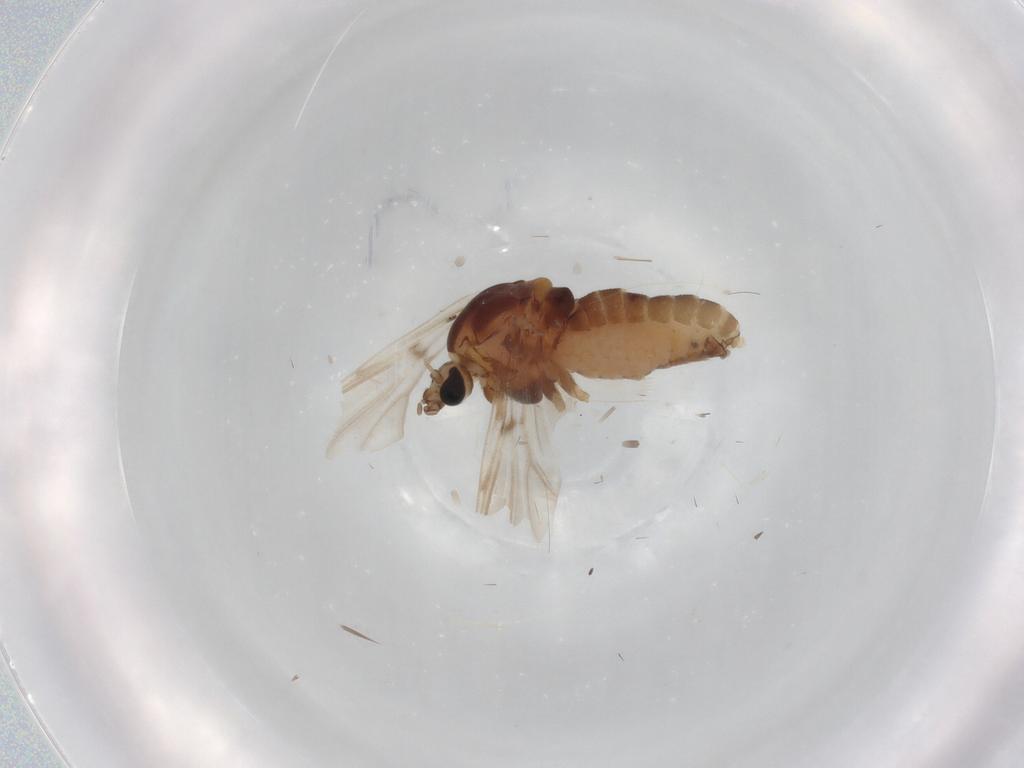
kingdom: Animalia
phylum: Arthropoda
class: Insecta
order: Diptera
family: Chironomidae
